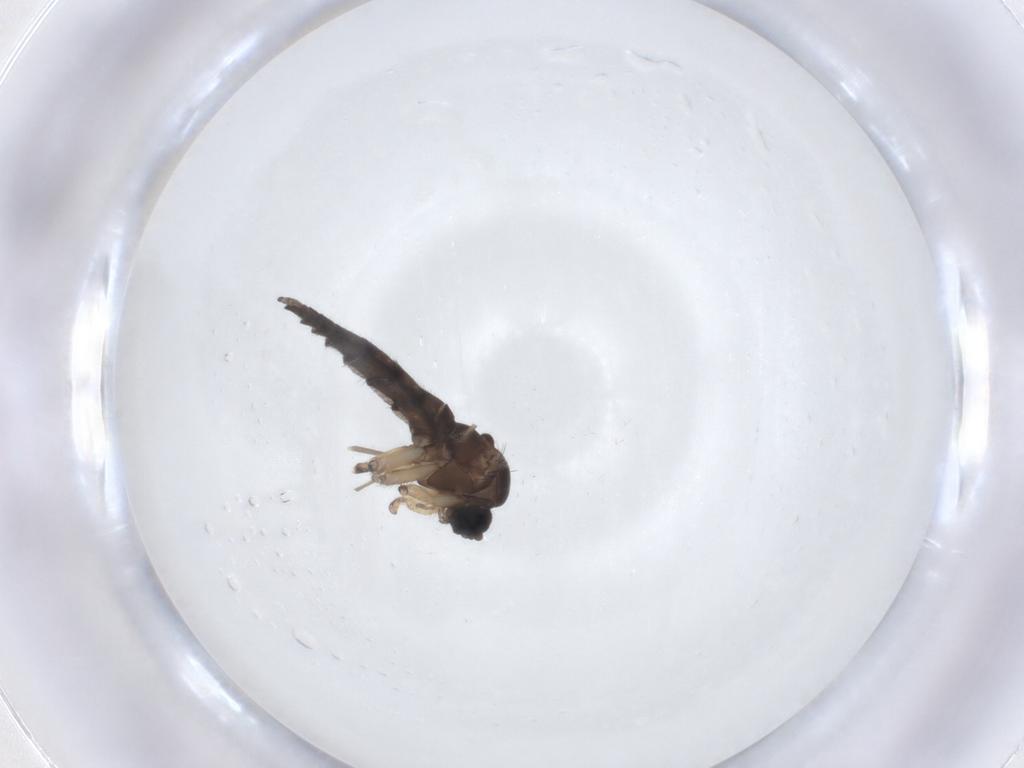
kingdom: Animalia
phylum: Arthropoda
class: Insecta
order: Diptera
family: Sciaridae
